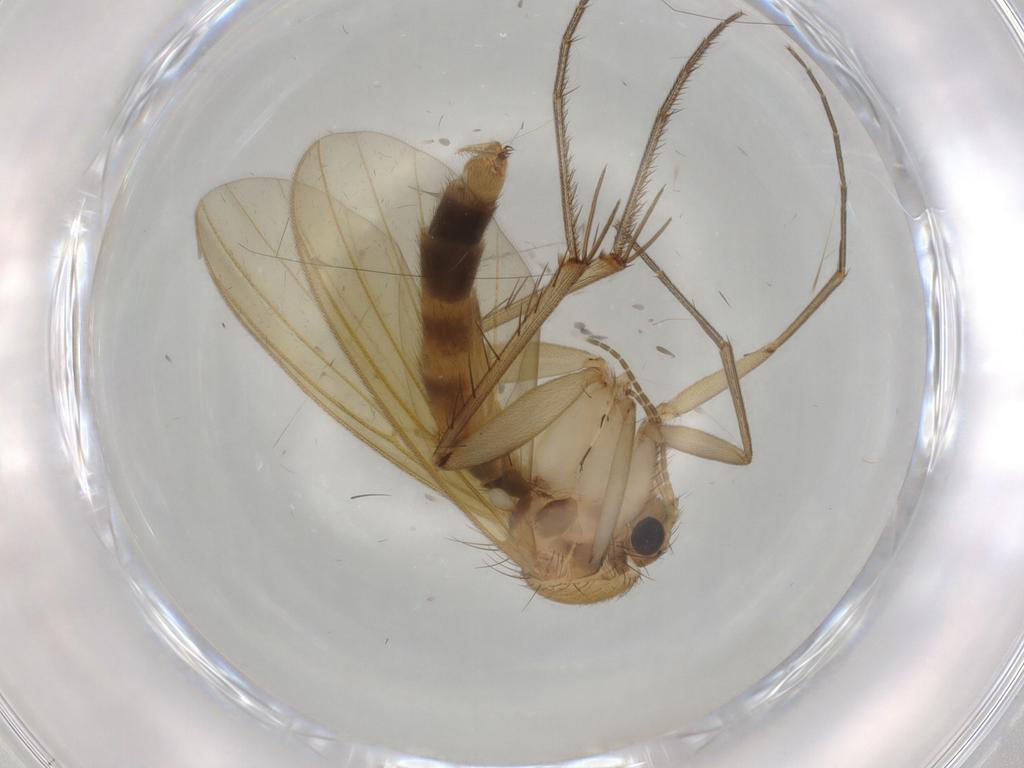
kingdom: Animalia
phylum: Arthropoda
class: Insecta
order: Diptera
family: Mycetophilidae
